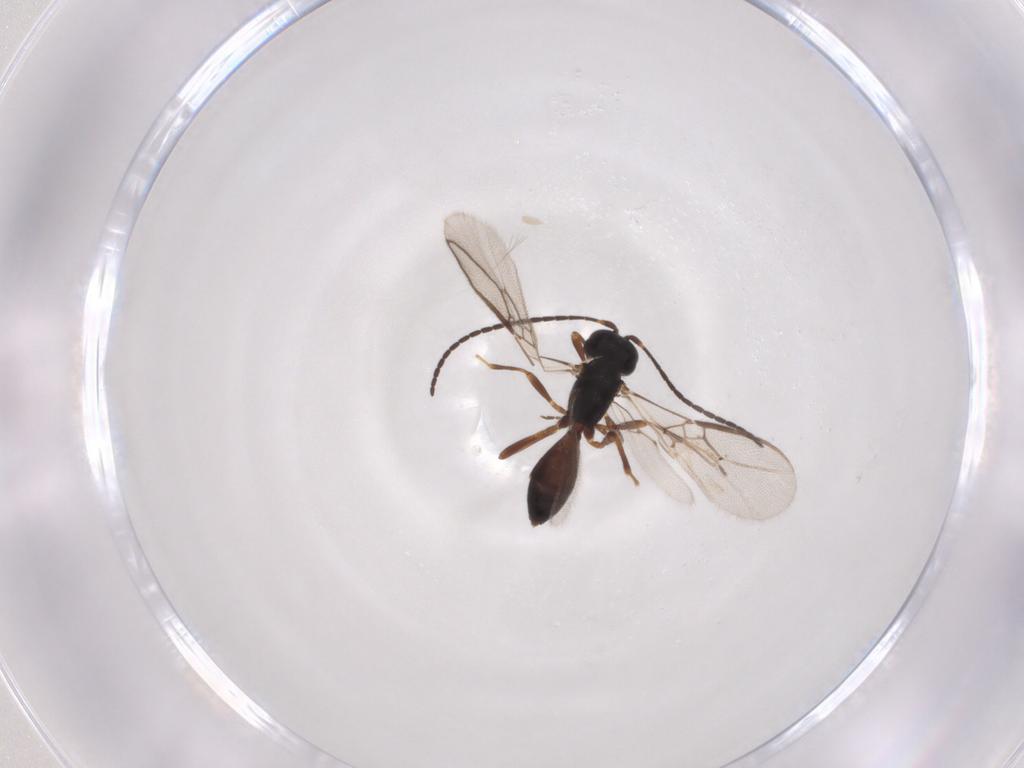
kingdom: Animalia
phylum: Arthropoda
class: Insecta
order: Hymenoptera
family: Braconidae
